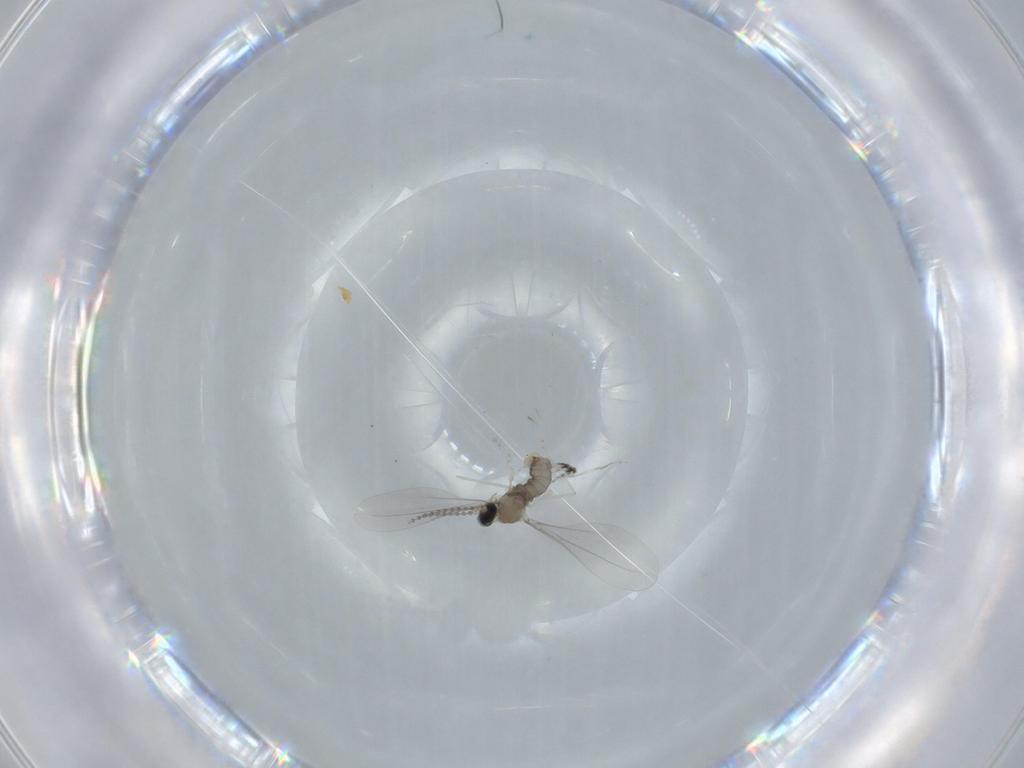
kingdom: Animalia
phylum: Arthropoda
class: Insecta
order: Diptera
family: Cecidomyiidae
